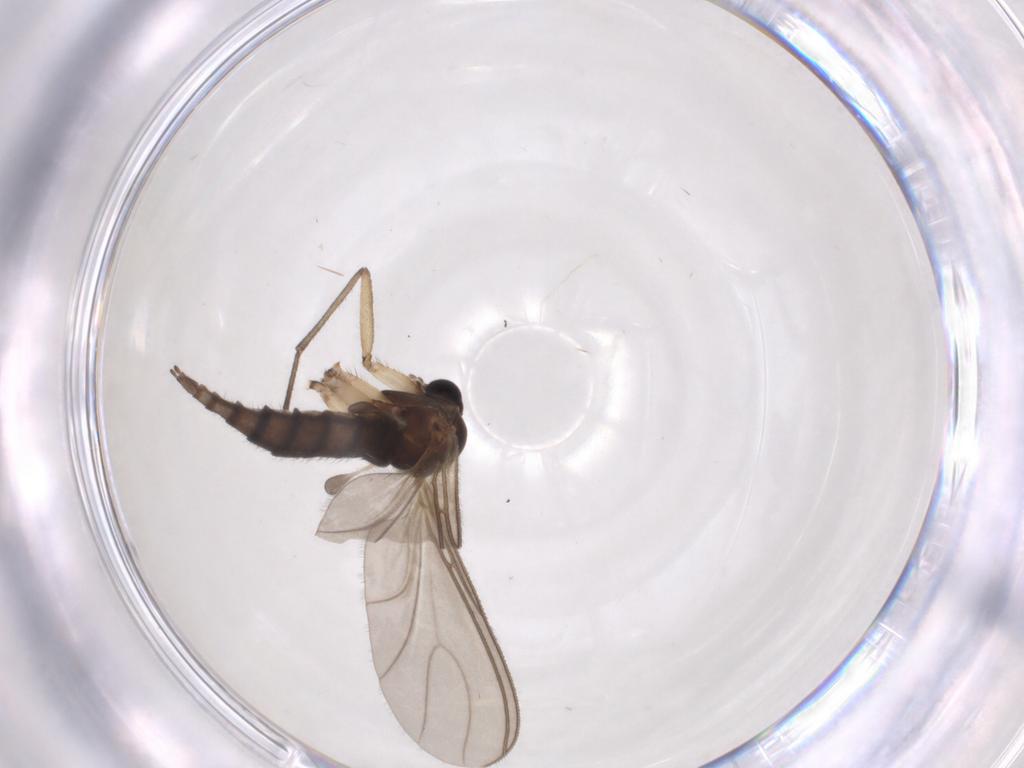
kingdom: Animalia
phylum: Arthropoda
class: Insecta
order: Diptera
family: Sciaridae
